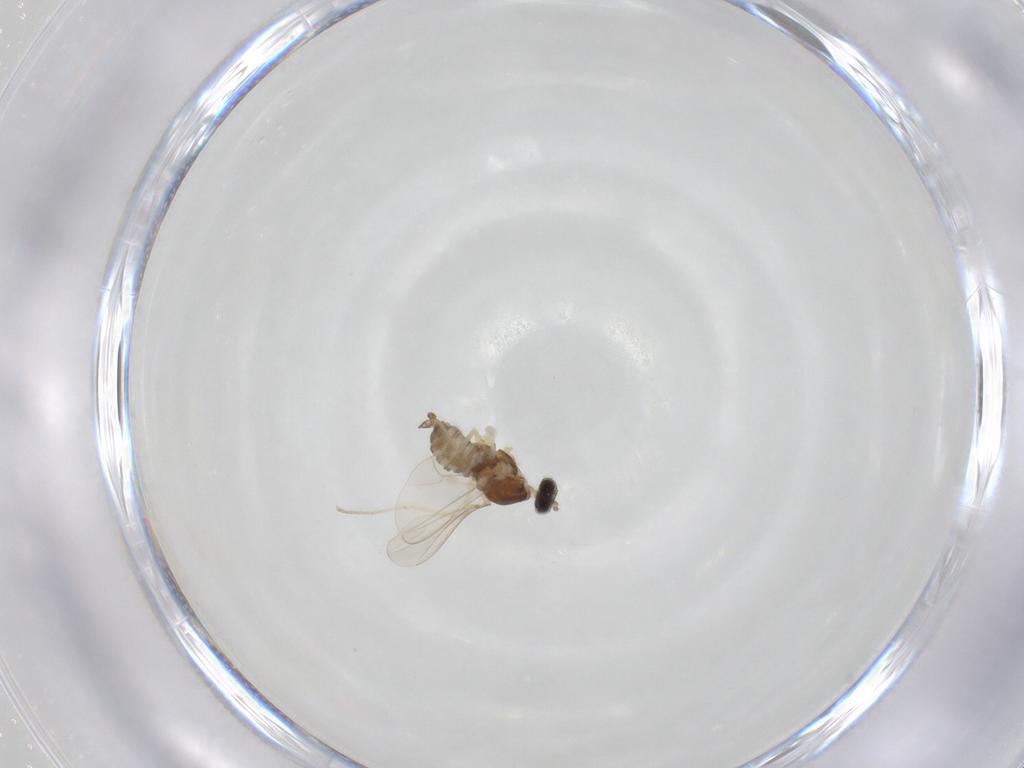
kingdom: Animalia
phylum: Arthropoda
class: Insecta
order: Diptera
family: Cecidomyiidae
